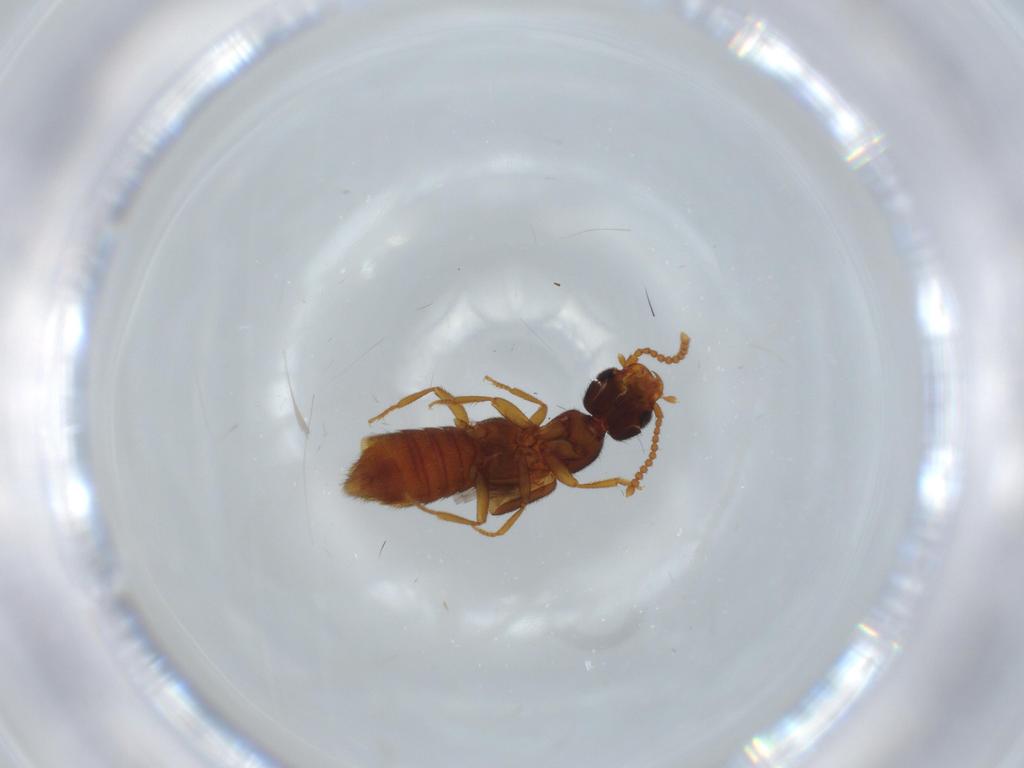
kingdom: Animalia
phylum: Arthropoda
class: Insecta
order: Coleoptera
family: Staphylinidae
